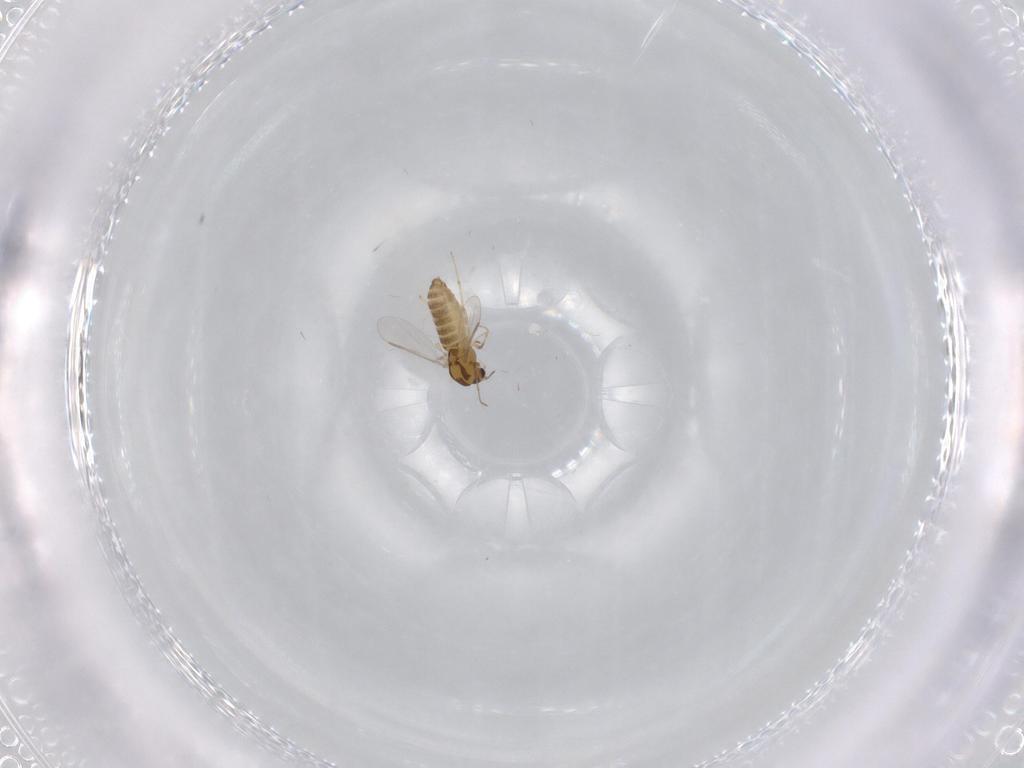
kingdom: Animalia
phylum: Arthropoda
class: Insecta
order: Diptera
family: Chironomidae
